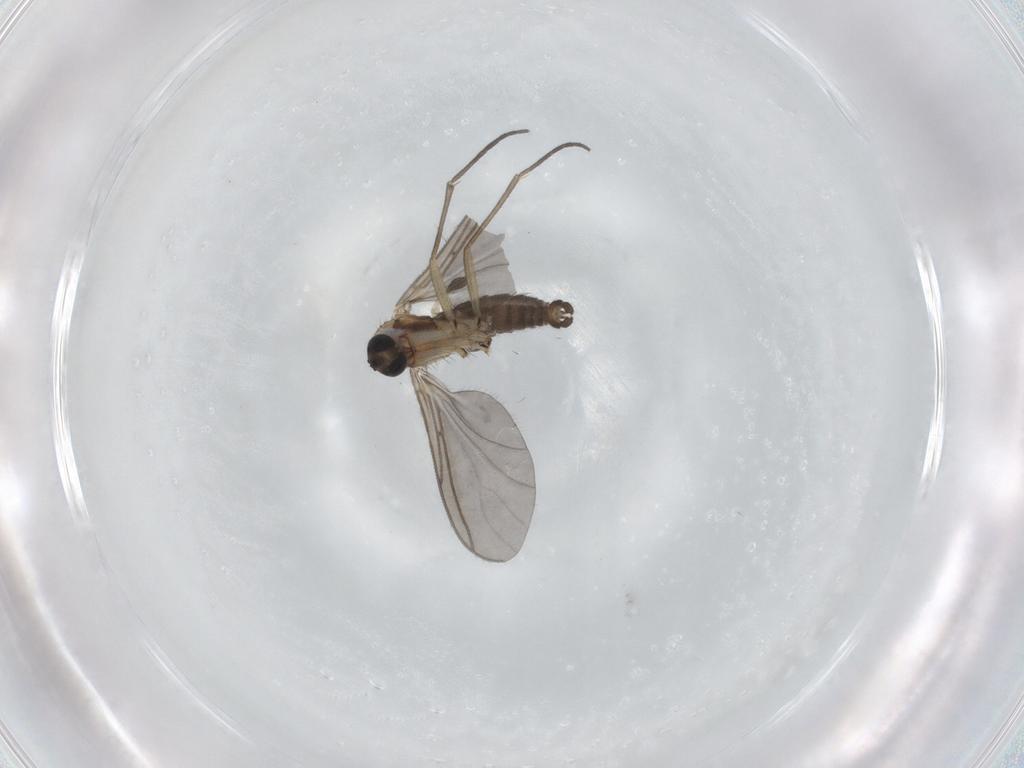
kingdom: Animalia
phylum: Arthropoda
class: Insecta
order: Diptera
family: Sciaridae
